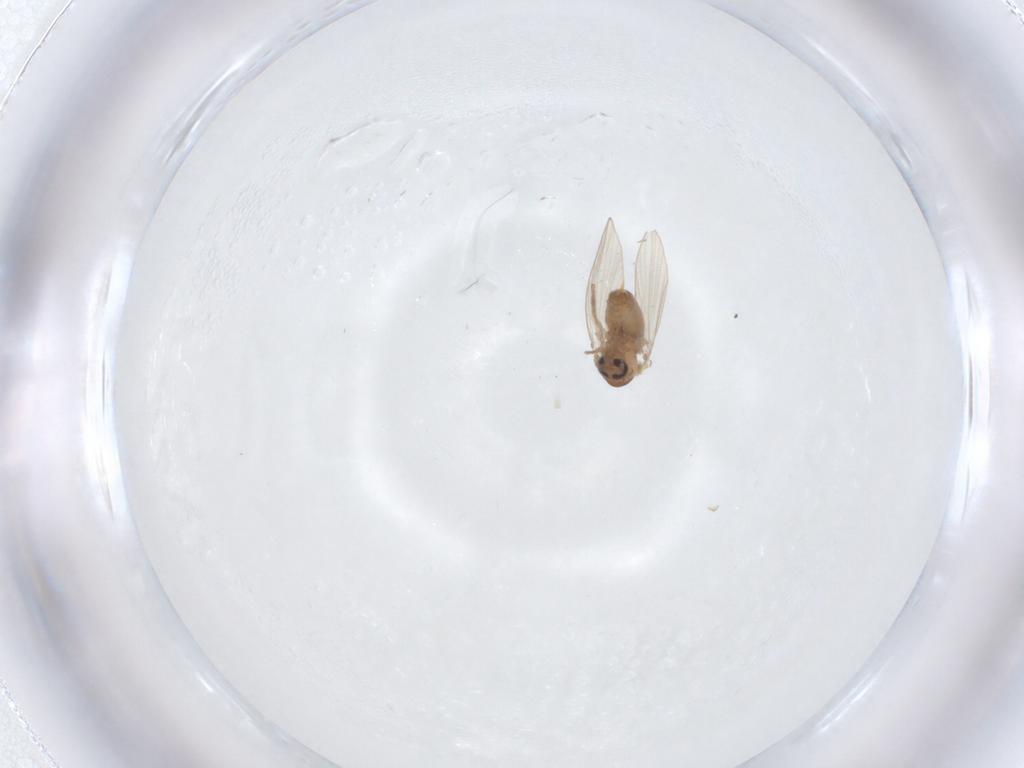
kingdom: Animalia
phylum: Arthropoda
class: Insecta
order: Diptera
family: Psychodidae
